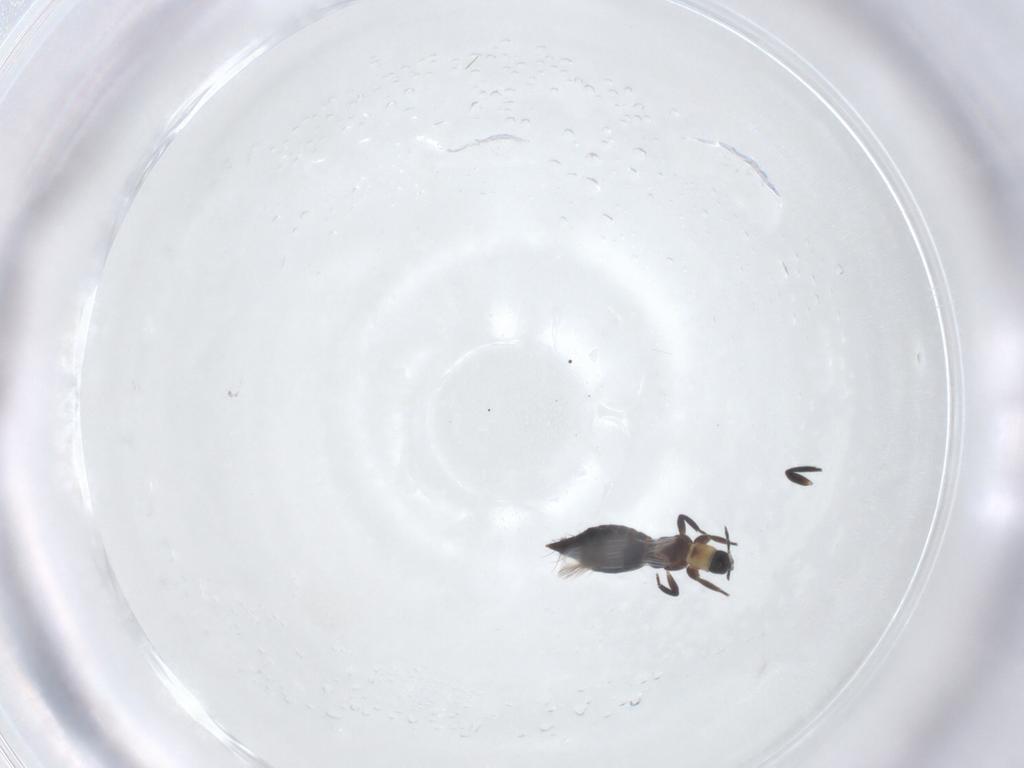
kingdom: Animalia
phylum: Arthropoda
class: Insecta
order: Thysanoptera
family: Aeolothripidae
